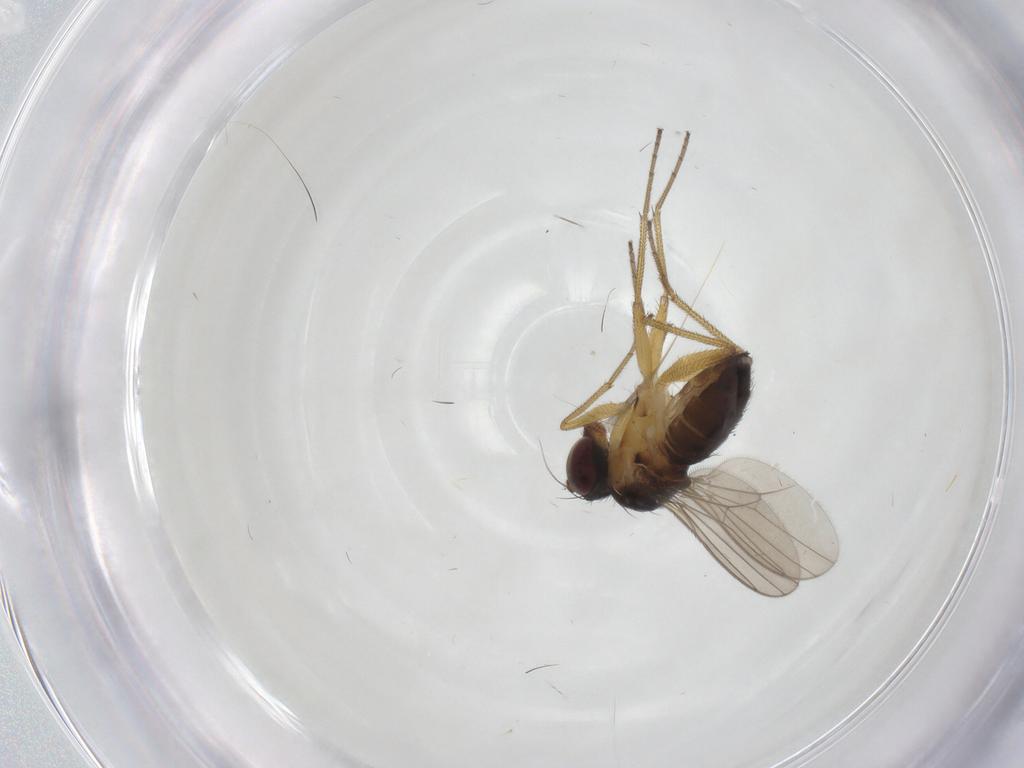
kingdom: Animalia
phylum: Arthropoda
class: Insecta
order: Diptera
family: Dolichopodidae
